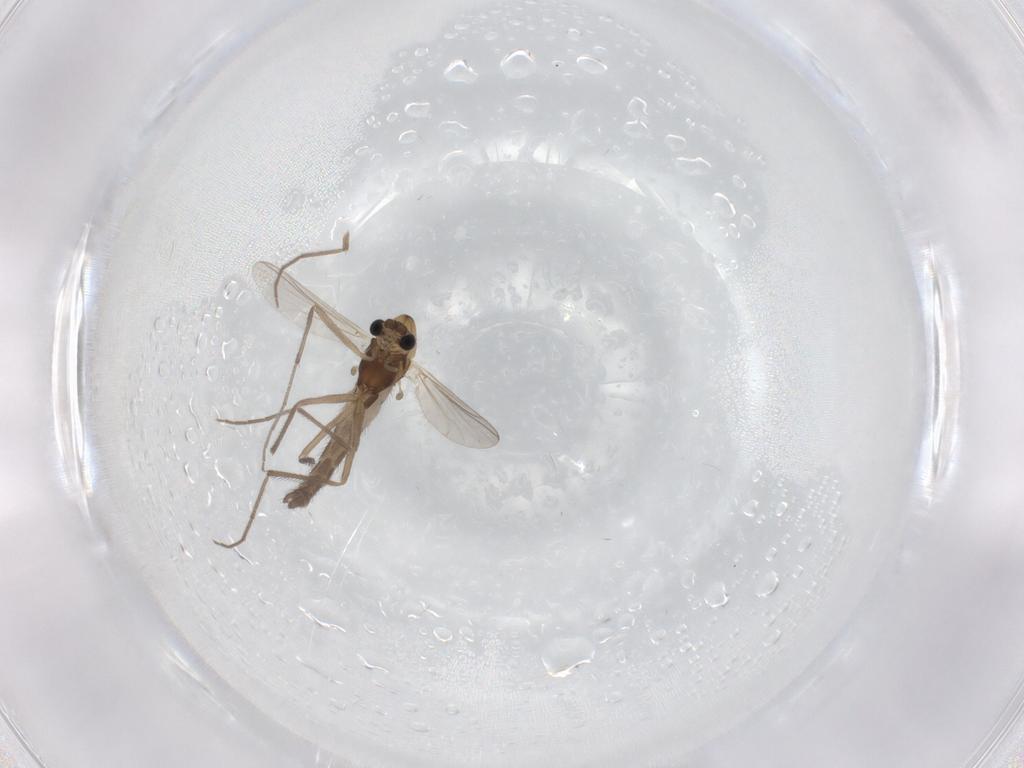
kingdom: Animalia
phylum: Arthropoda
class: Insecta
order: Diptera
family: Chironomidae
